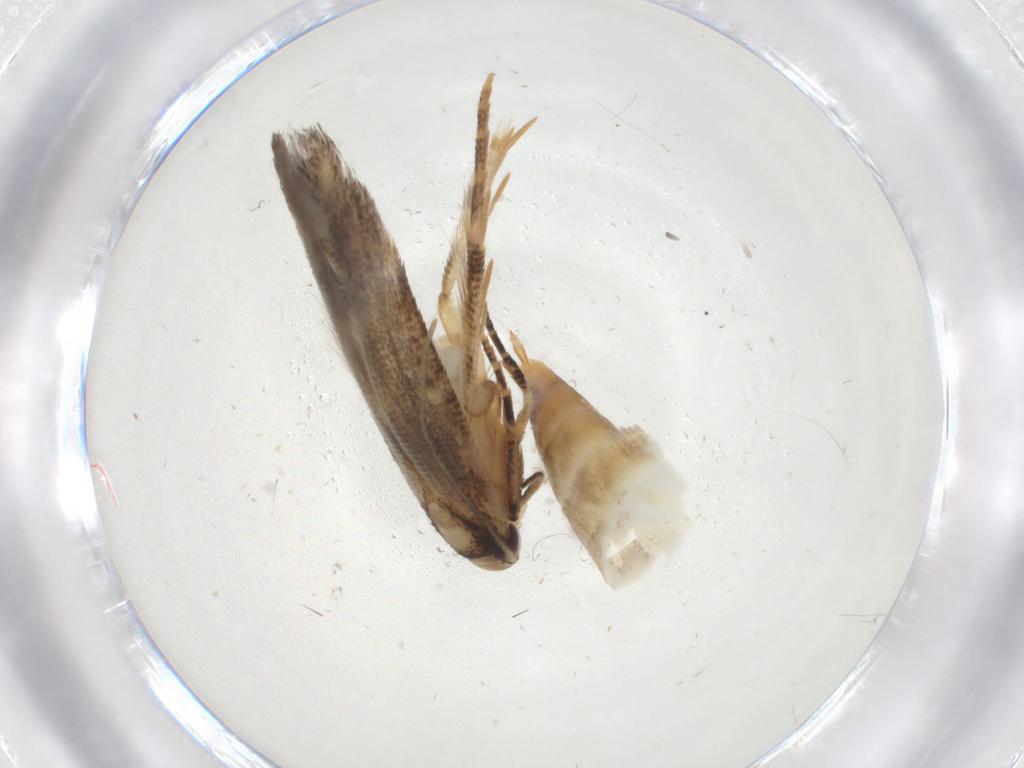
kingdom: Animalia
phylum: Arthropoda
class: Insecta
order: Lepidoptera
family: Cosmopterigidae
